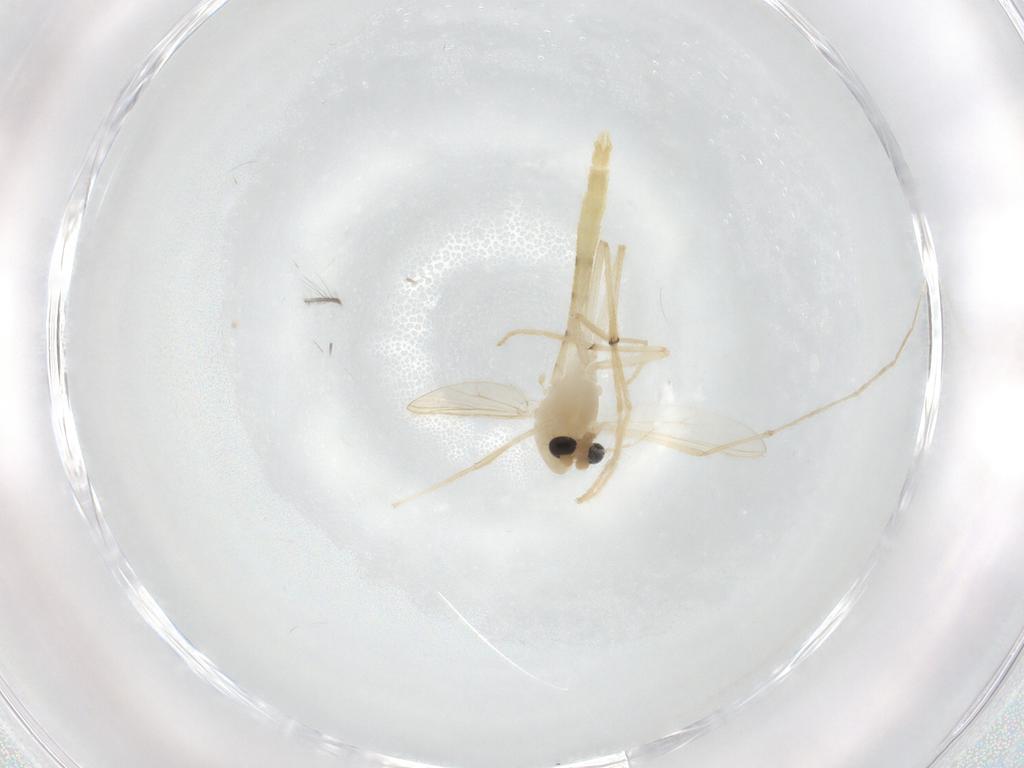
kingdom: Animalia
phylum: Arthropoda
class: Insecta
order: Diptera
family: Chironomidae
